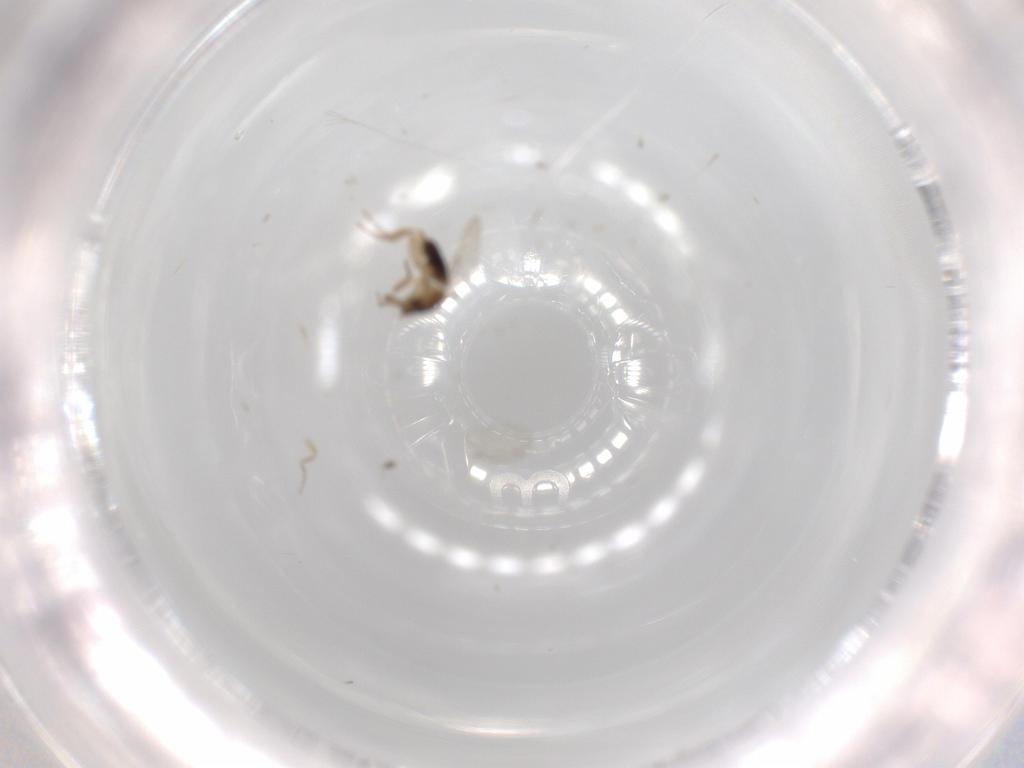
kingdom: Animalia
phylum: Arthropoda
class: Insecta
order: Diptera
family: Phoridae
